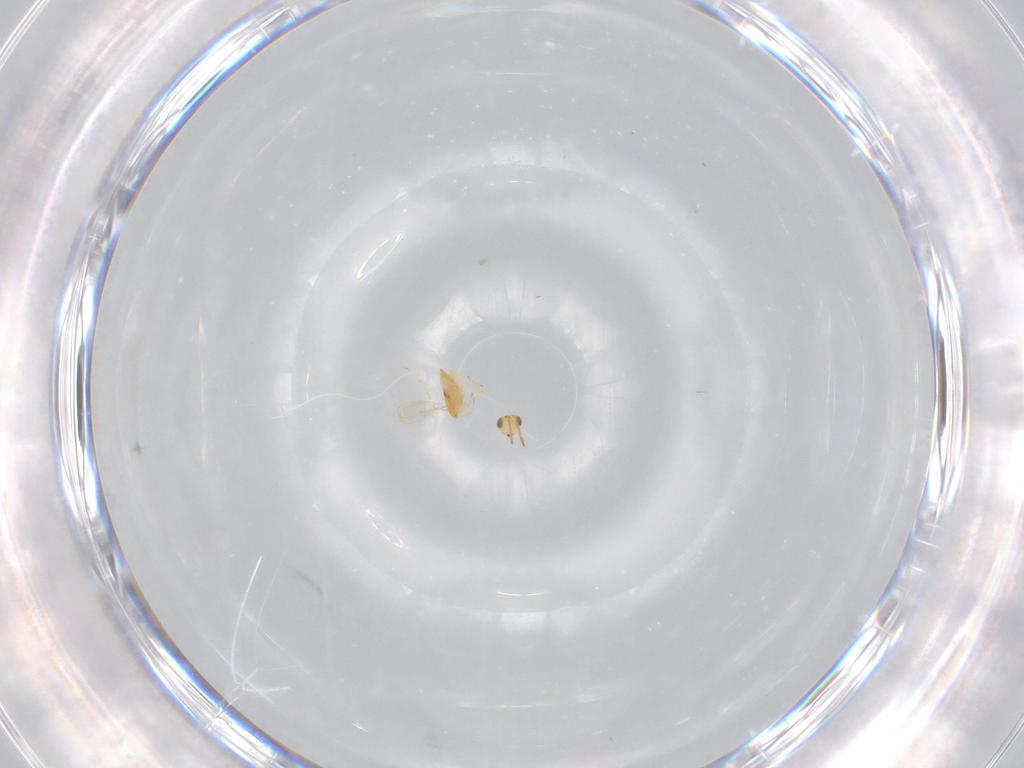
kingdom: Animalia
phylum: Arthropoda
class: Insecta
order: Hymenoptera
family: Aphelinidae
